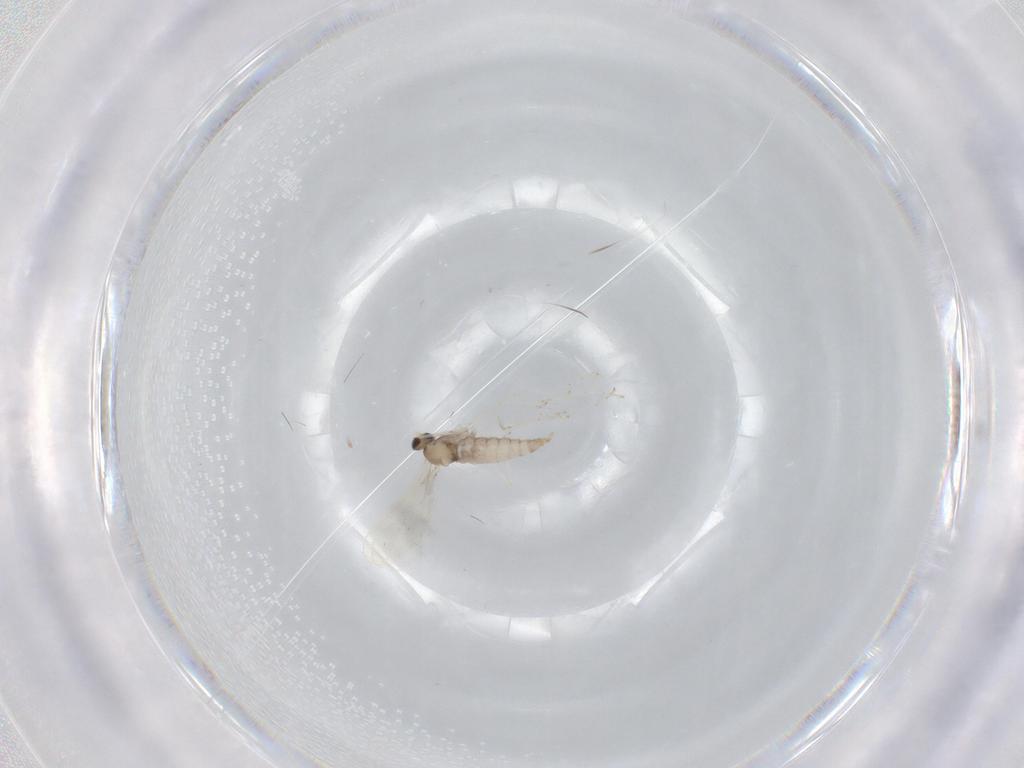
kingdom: Animalia
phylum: Arthropoda
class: Insecta
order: Diptera
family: Cecidomyiidae
